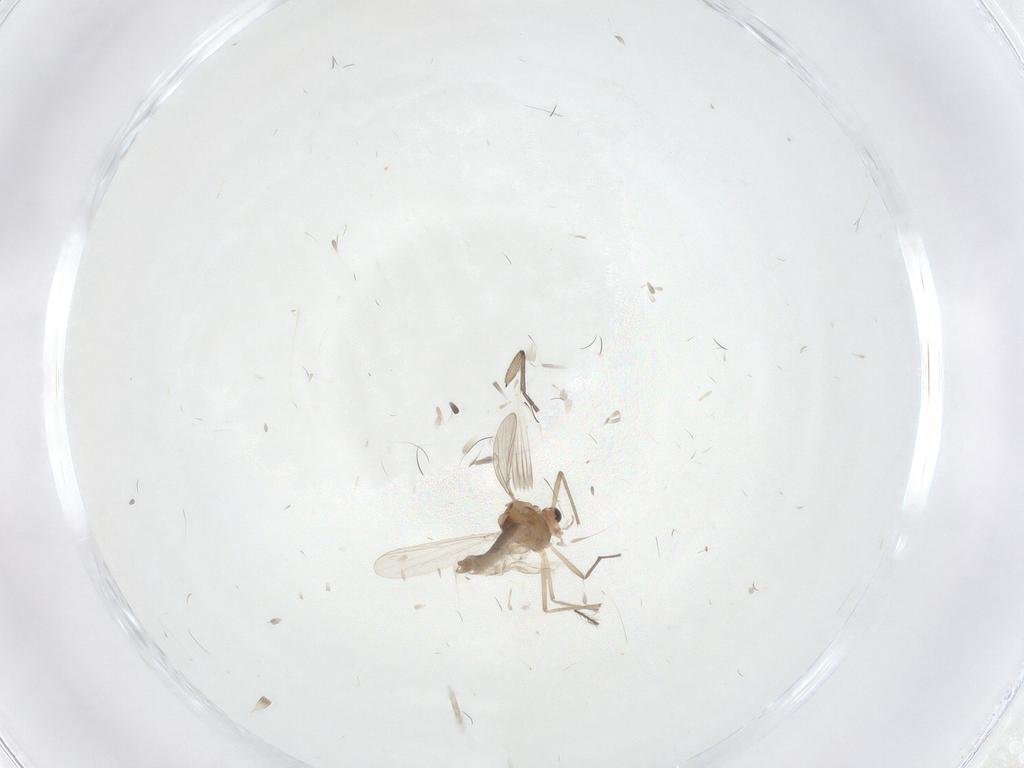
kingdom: Animalia
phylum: Arthropoda
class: Insecta
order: Diptera
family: Chironomidae
